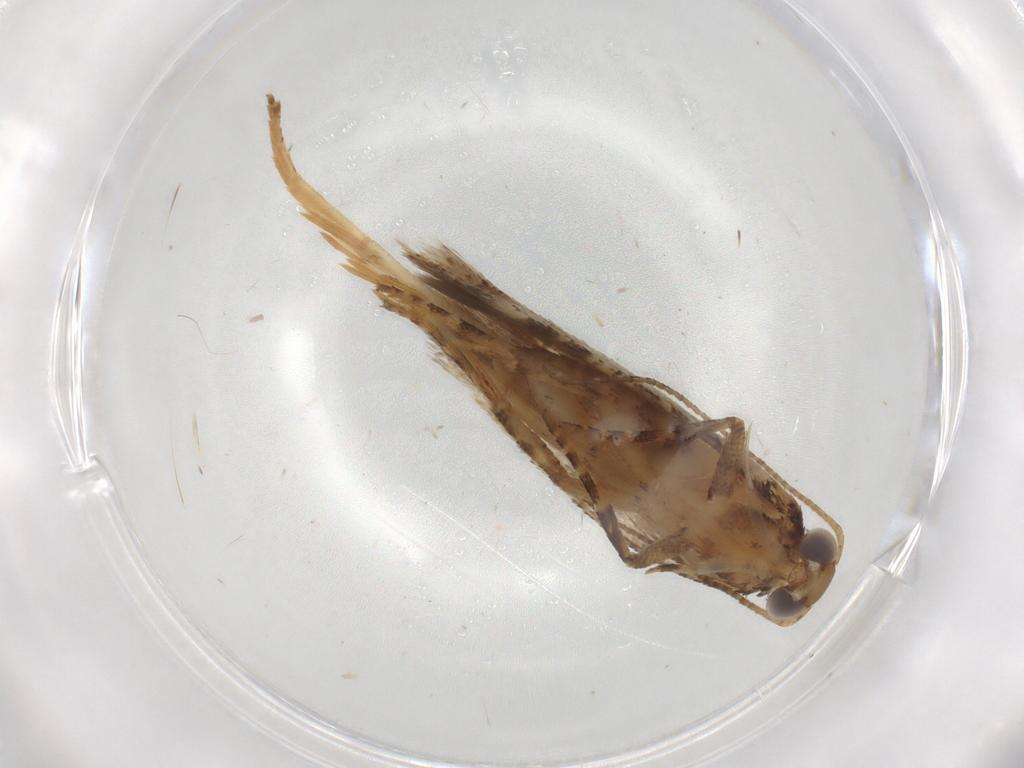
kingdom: Animalia
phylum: Arthropoda
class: Insecta
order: Lepidoptera
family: Gelechiidae
